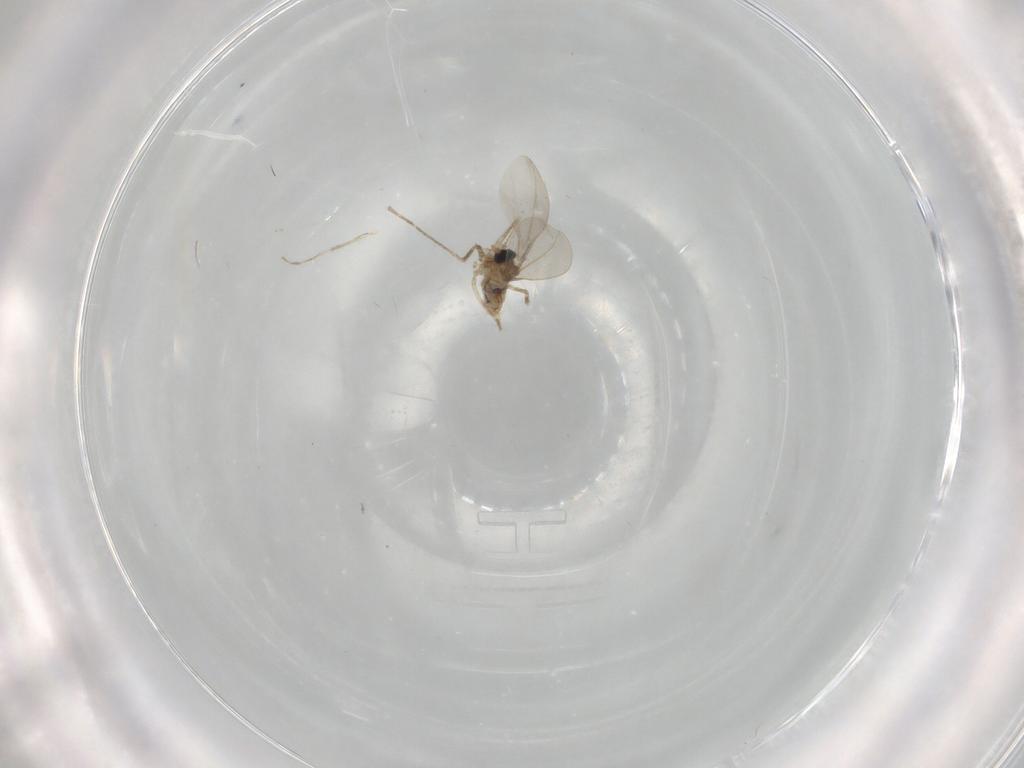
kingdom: Animalia
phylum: Arthropoda
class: Insecta
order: Diptera
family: Cecidomyiidae
